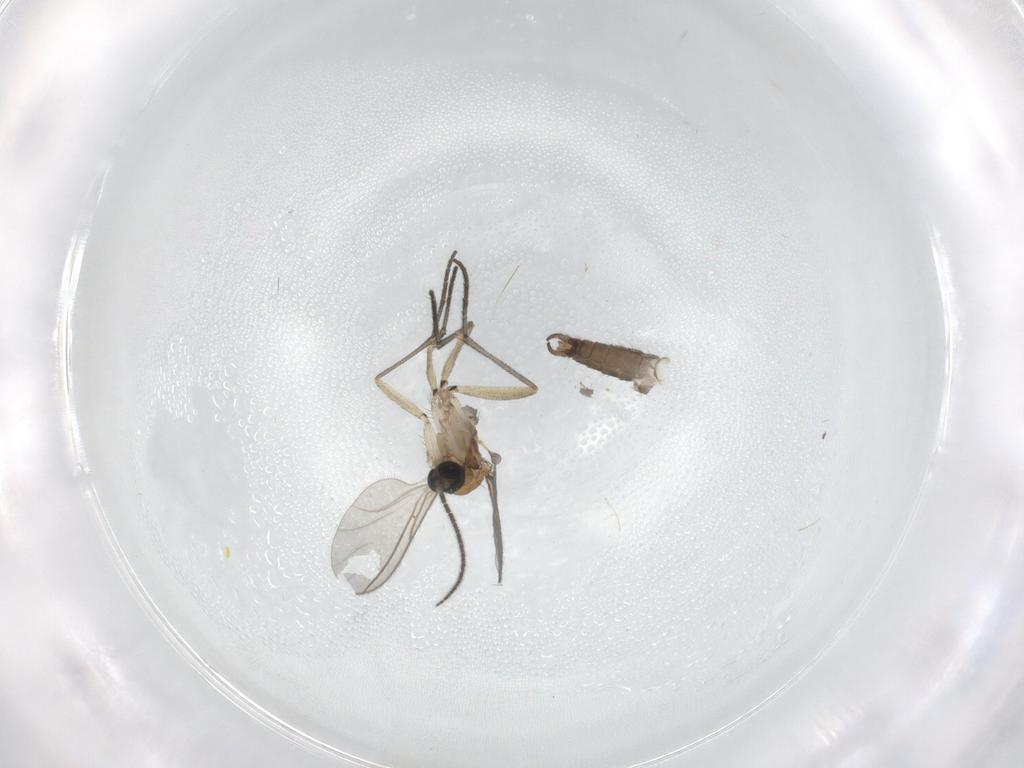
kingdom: Animalia
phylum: Arthropoda
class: Insecta
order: Diptera
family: Sciaridae
